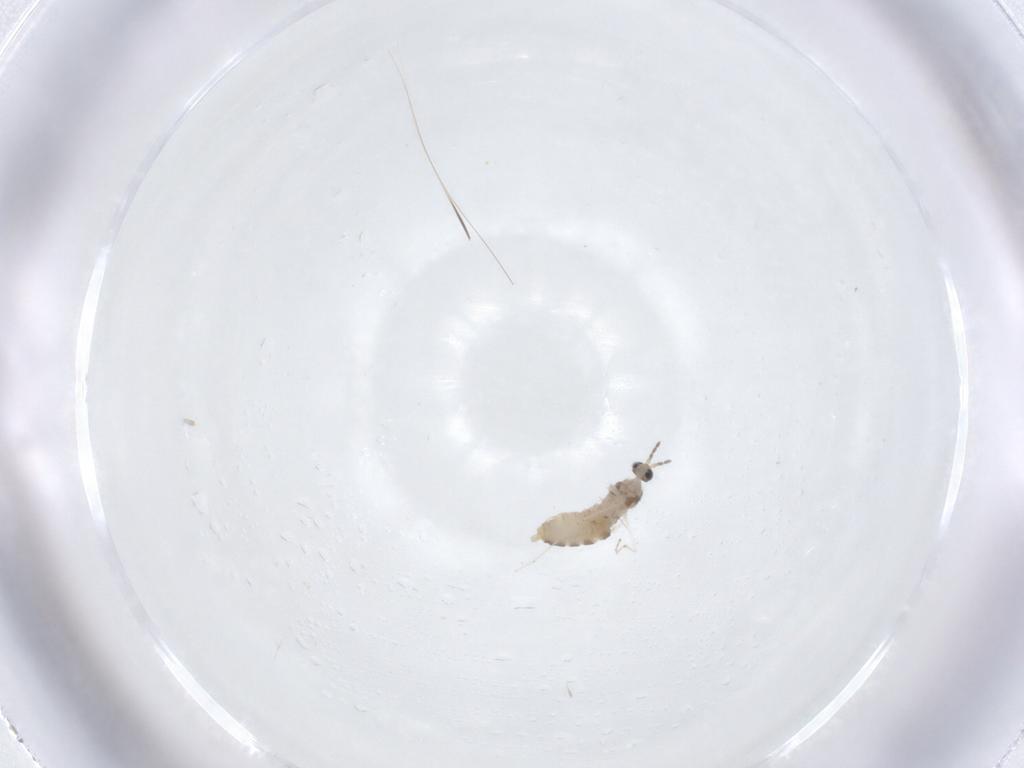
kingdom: Animalia
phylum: Arthropoda
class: Insecta
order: Diptera
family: Cecidomyiidae
